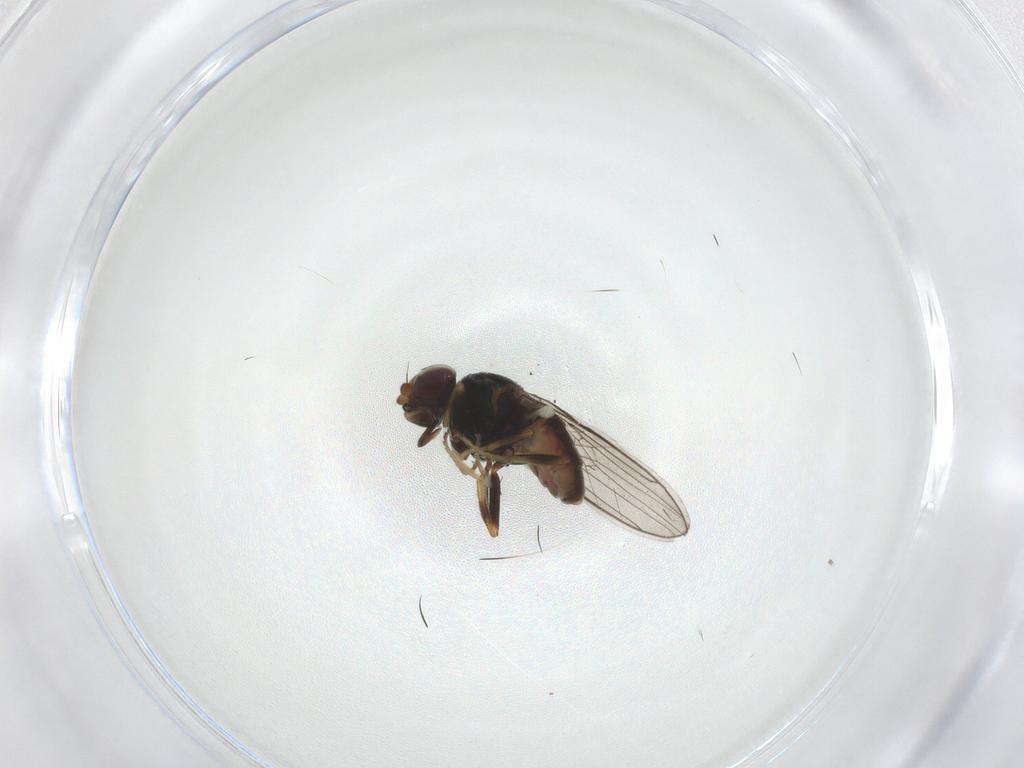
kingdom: Animalia
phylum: Arthropoda
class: Insecta
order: Diptera
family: Chloropidae
